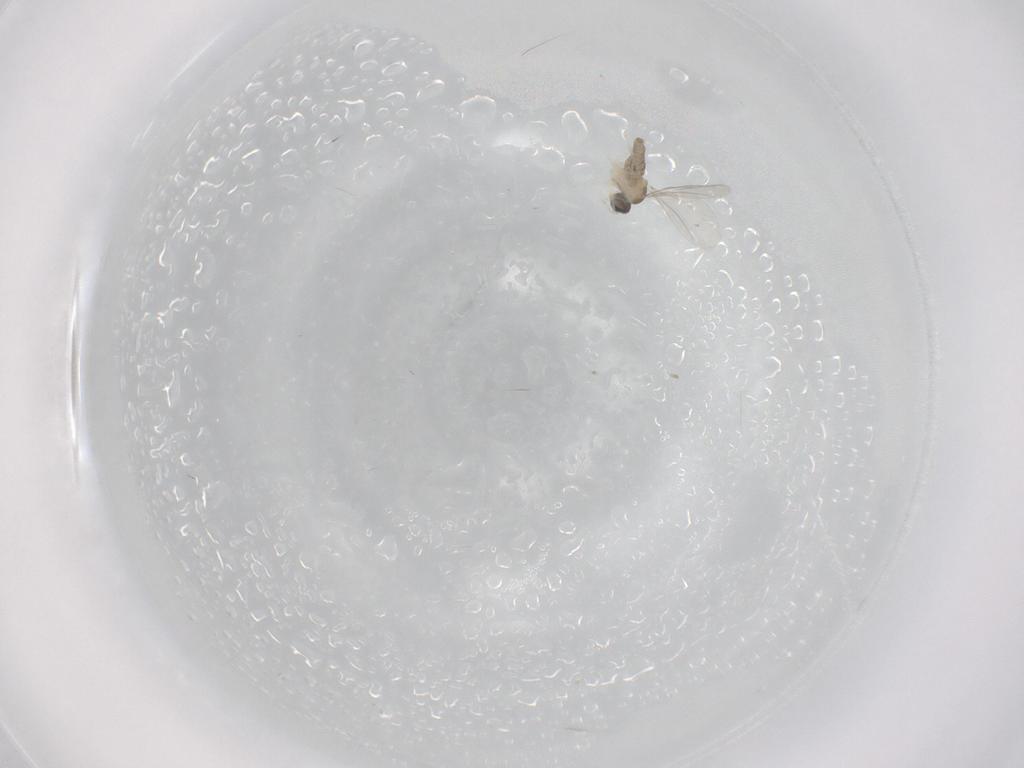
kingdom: Animalia
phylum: Arthropoda
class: Insecta
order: Diptera
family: Cecidomyiidae
